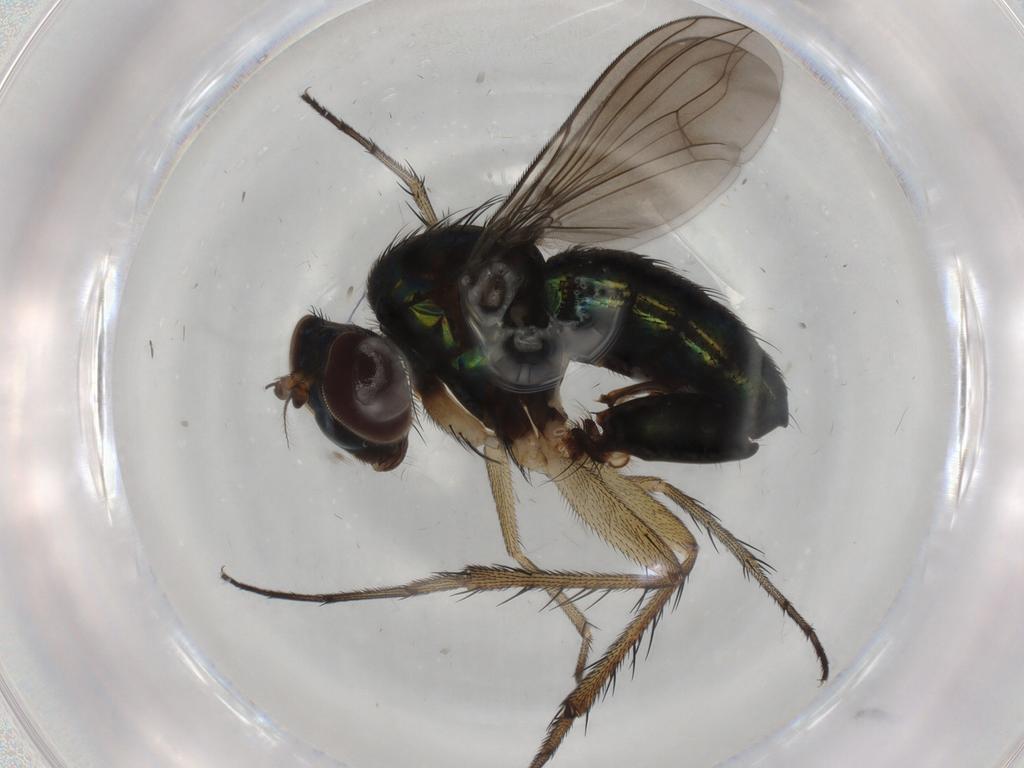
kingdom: Animalia
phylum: Arthropoda
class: Insecta
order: Diptera
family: Dolichopodidae
